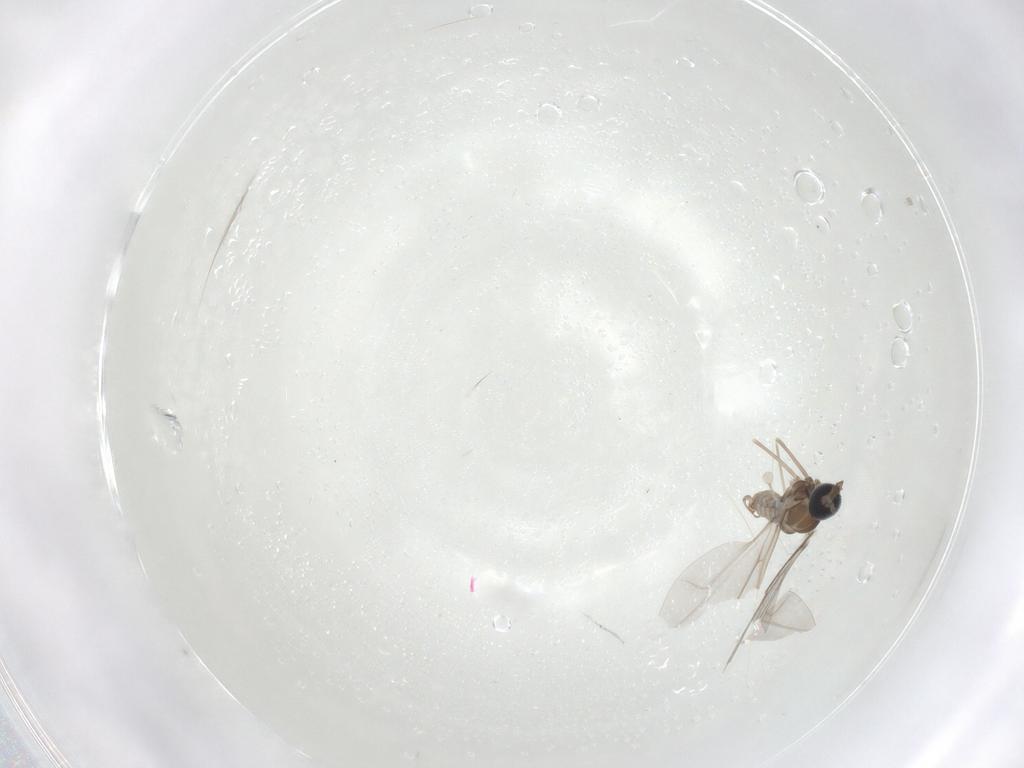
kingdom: Animalia
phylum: Arthropoda
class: Insecta
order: Diptera
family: Cecidomyiidae
